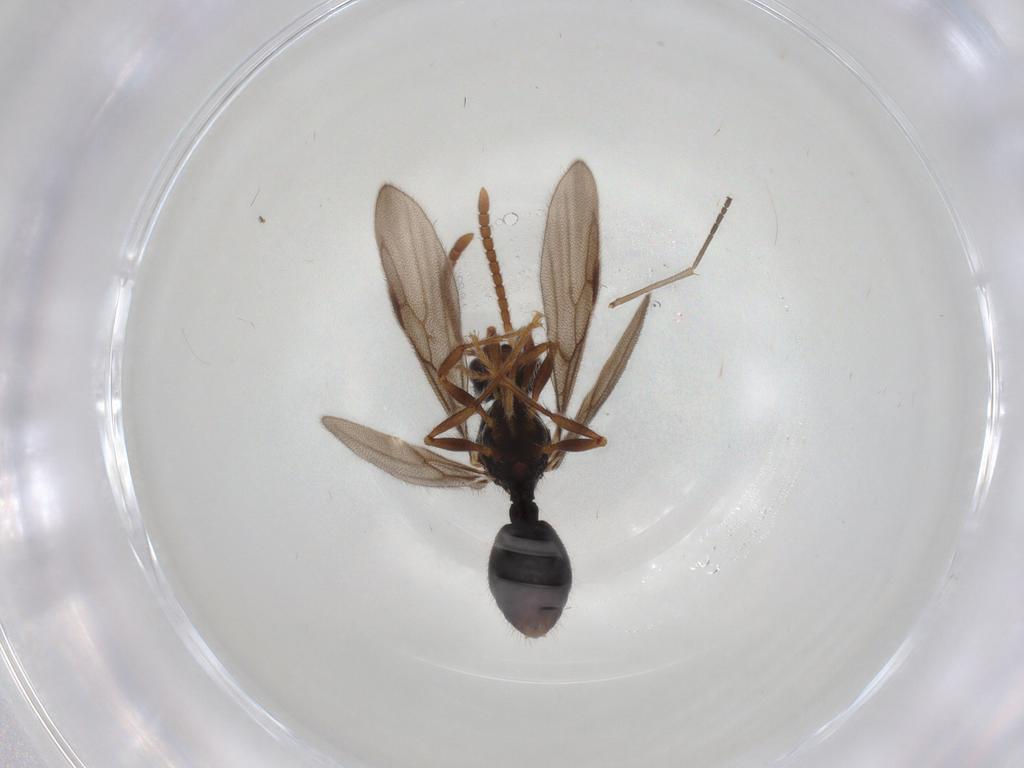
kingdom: Animalia
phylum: Arthropoda
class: Insecta
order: Hymenoptera
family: Formicidae
